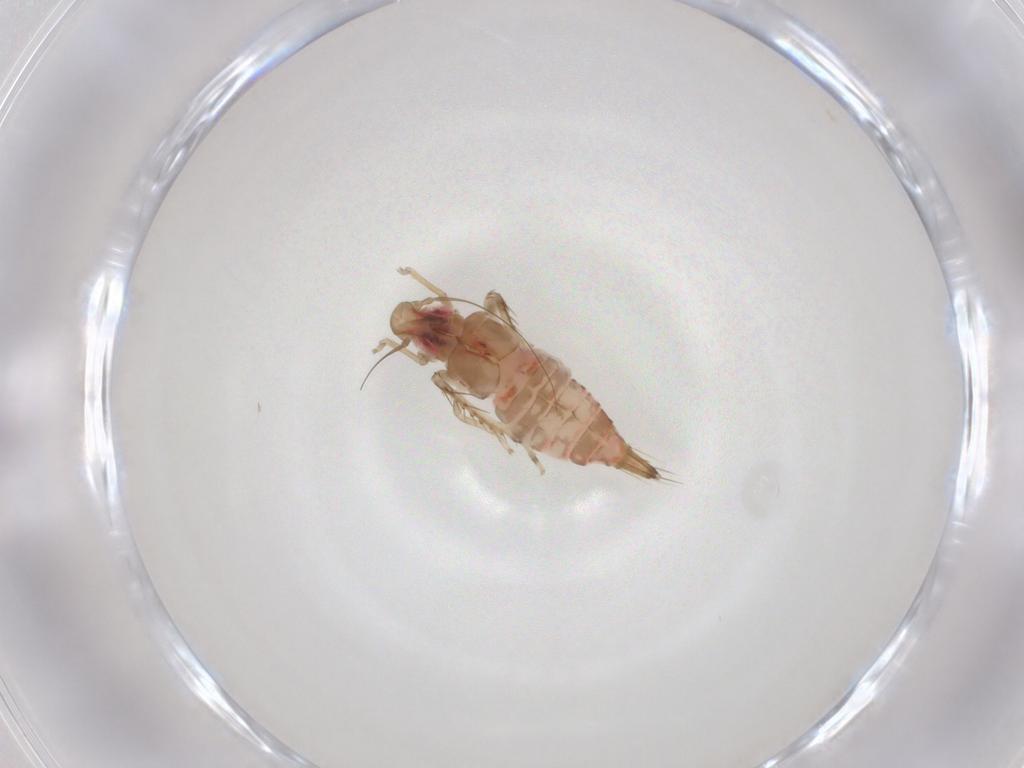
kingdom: Animalia
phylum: Arthropoda
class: Insecta
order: Hemiptera
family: Cicadellidae
